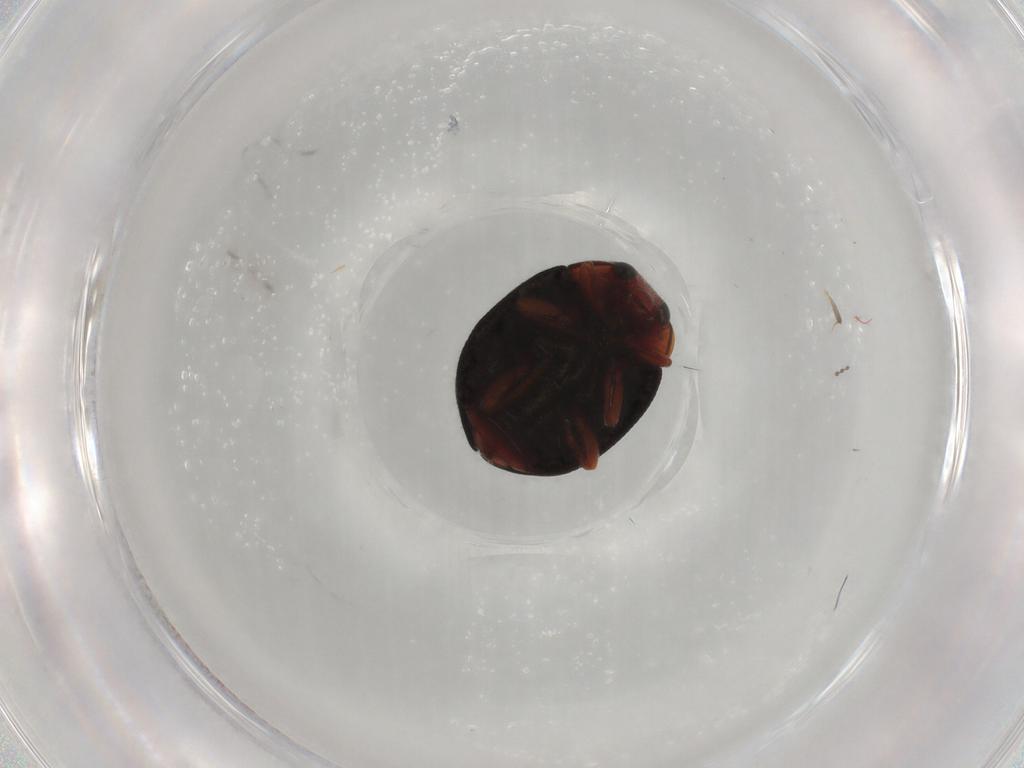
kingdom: Animalia
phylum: Arthropoda
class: Insecta
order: Coleoptera
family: Coccinellidae
